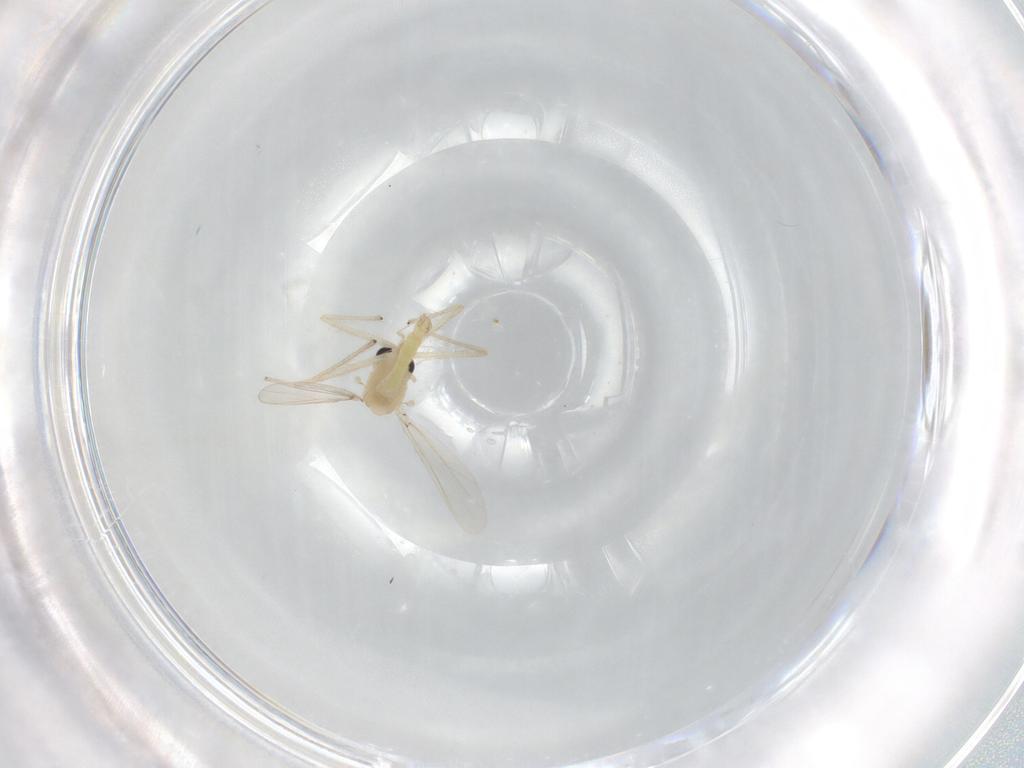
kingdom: Animalia
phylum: Arthropoda
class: Insecta
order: Diptera
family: Chironomidae
